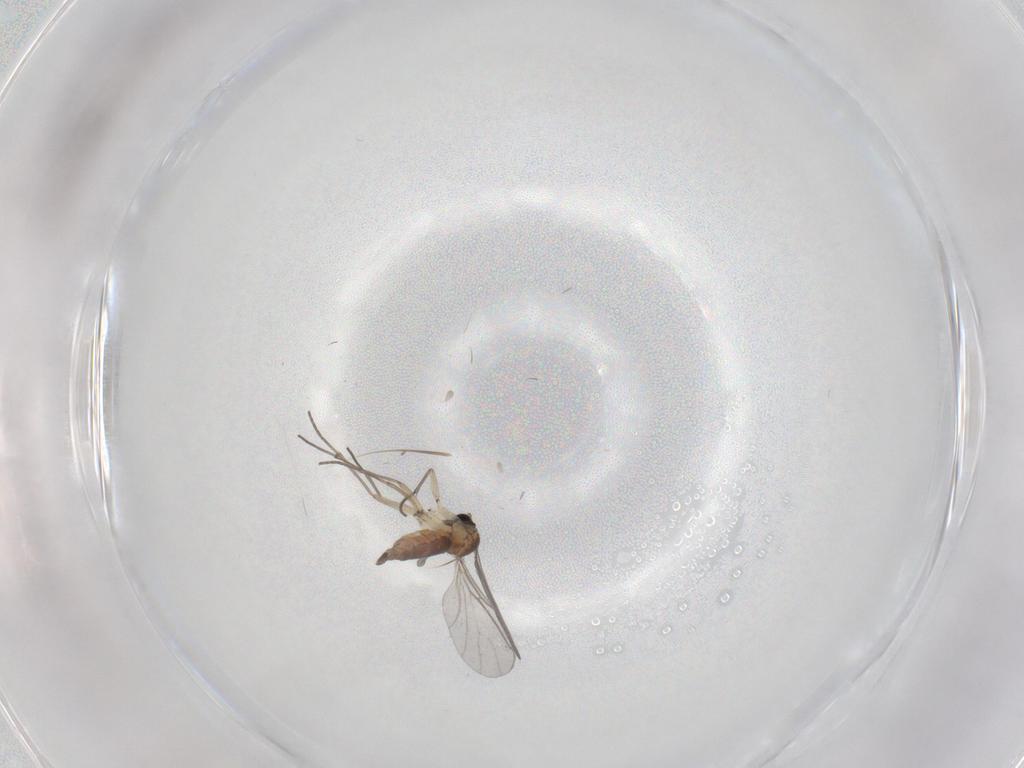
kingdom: Animalia
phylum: Arthropoda
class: Insecta
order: Diptera
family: Sciaridae
